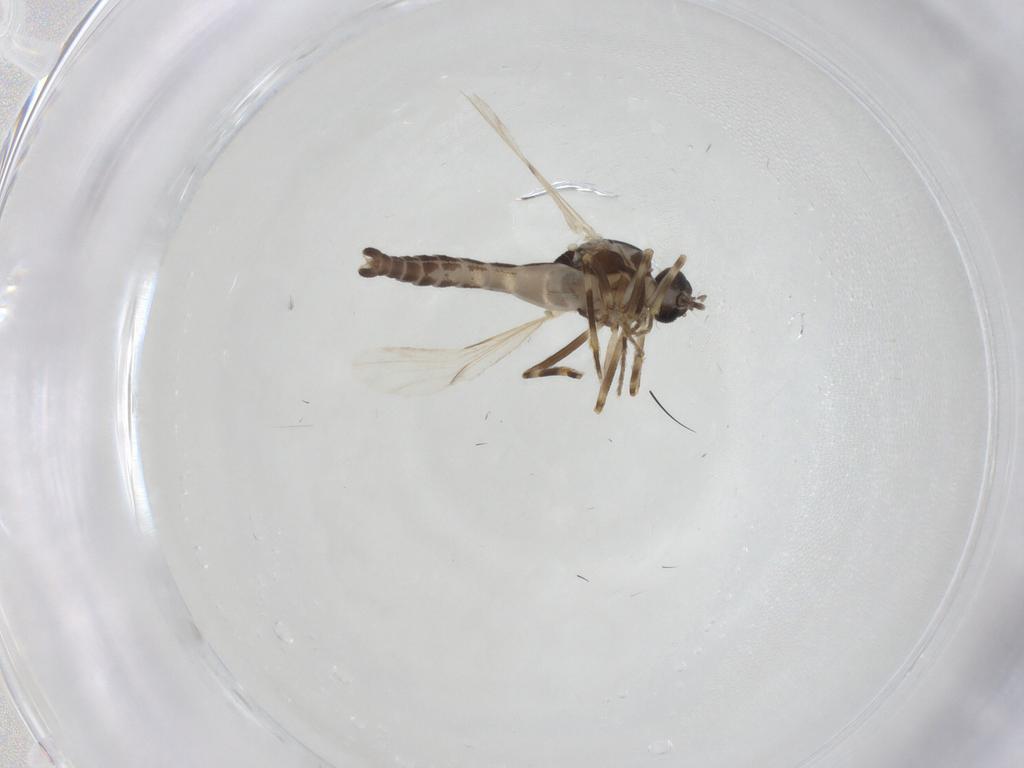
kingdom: Animalia
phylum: Arthropoda
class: Insecta
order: Diptera
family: Ceratopogonidae
